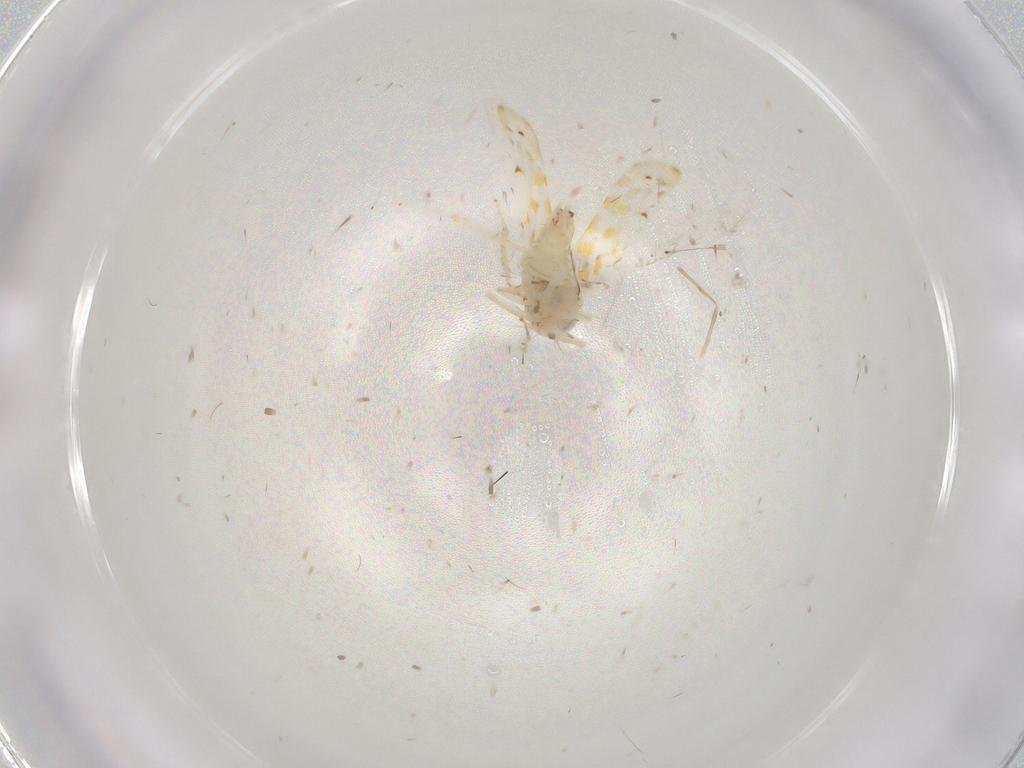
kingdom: Animalia
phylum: Arthropoda
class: Insecta
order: Hemiptera
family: Cicadellidae
